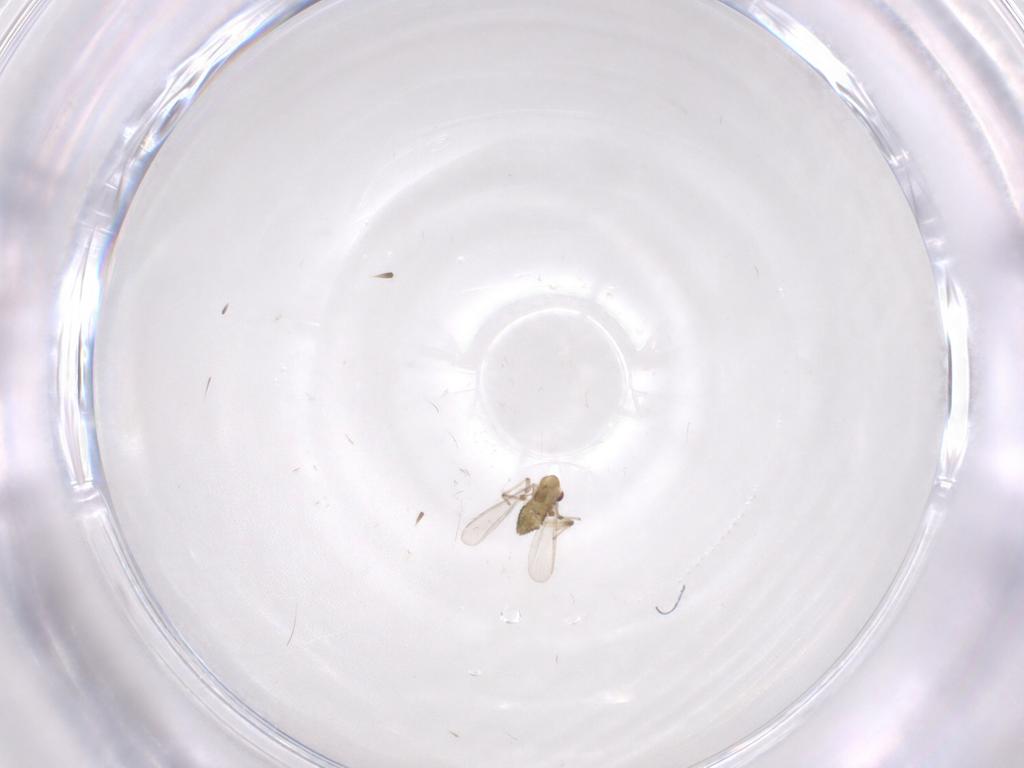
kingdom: Animalia
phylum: Arthropoda
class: Insecta
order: Diptera
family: Chironomidae
